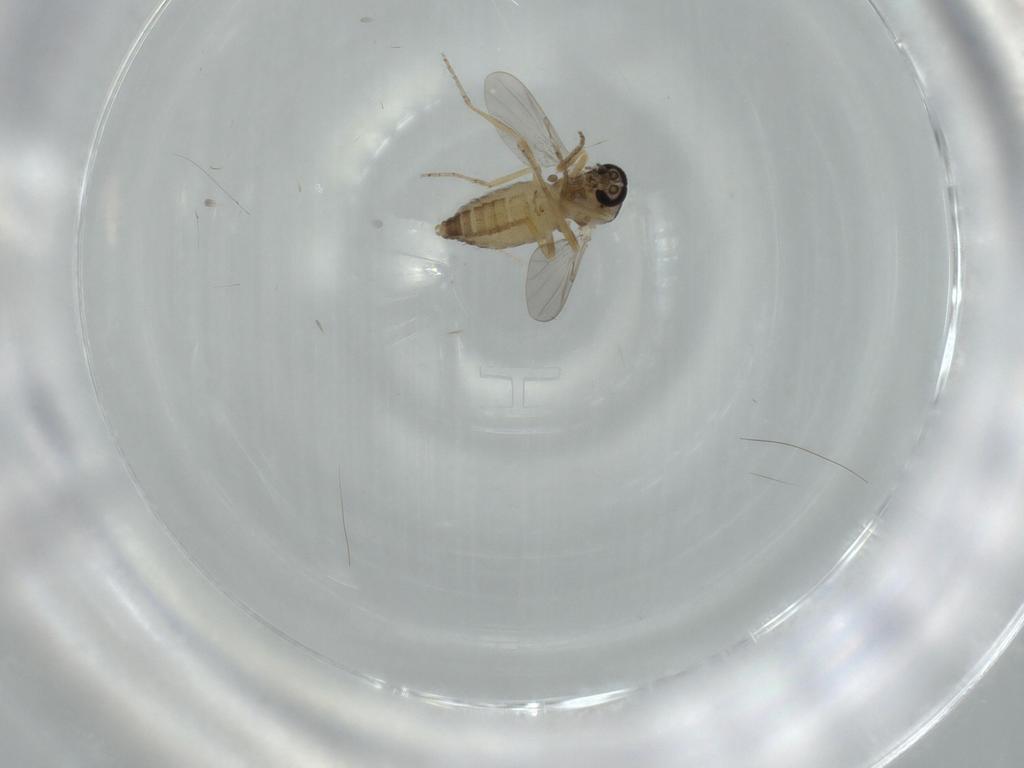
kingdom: Animalia
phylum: Arthropoda
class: Insecta
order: Diptera
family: Ceratopogonidae
